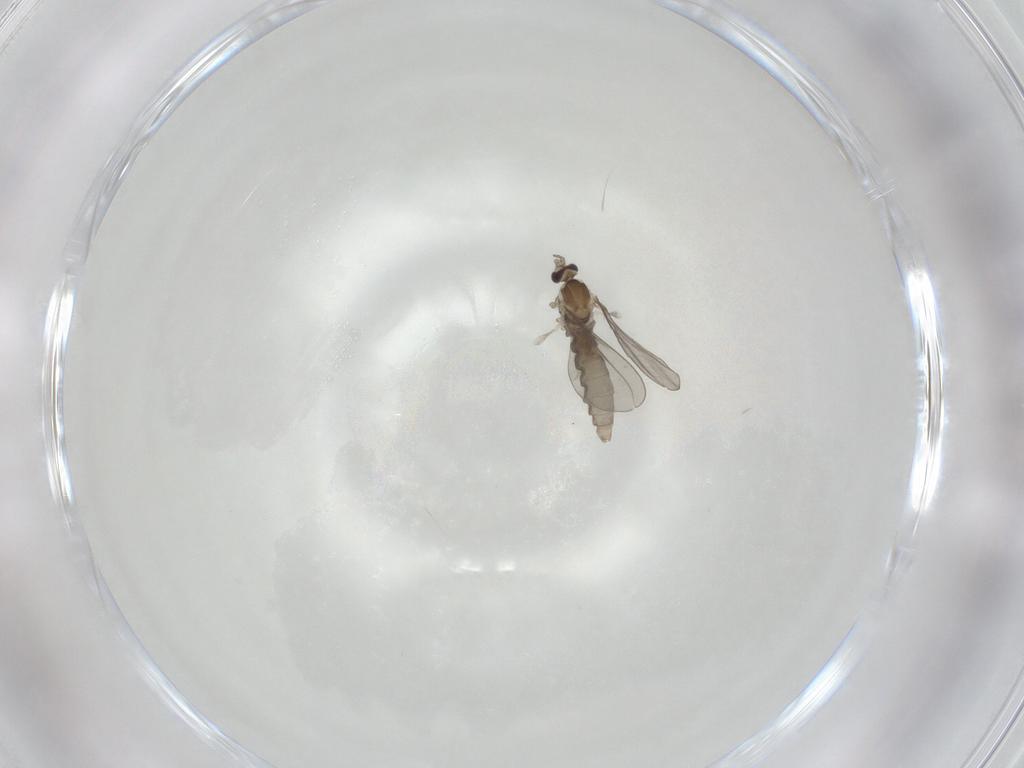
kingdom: Animalia
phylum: Arthropoda
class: Insecta
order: Diptera
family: Cecidomyiidae
